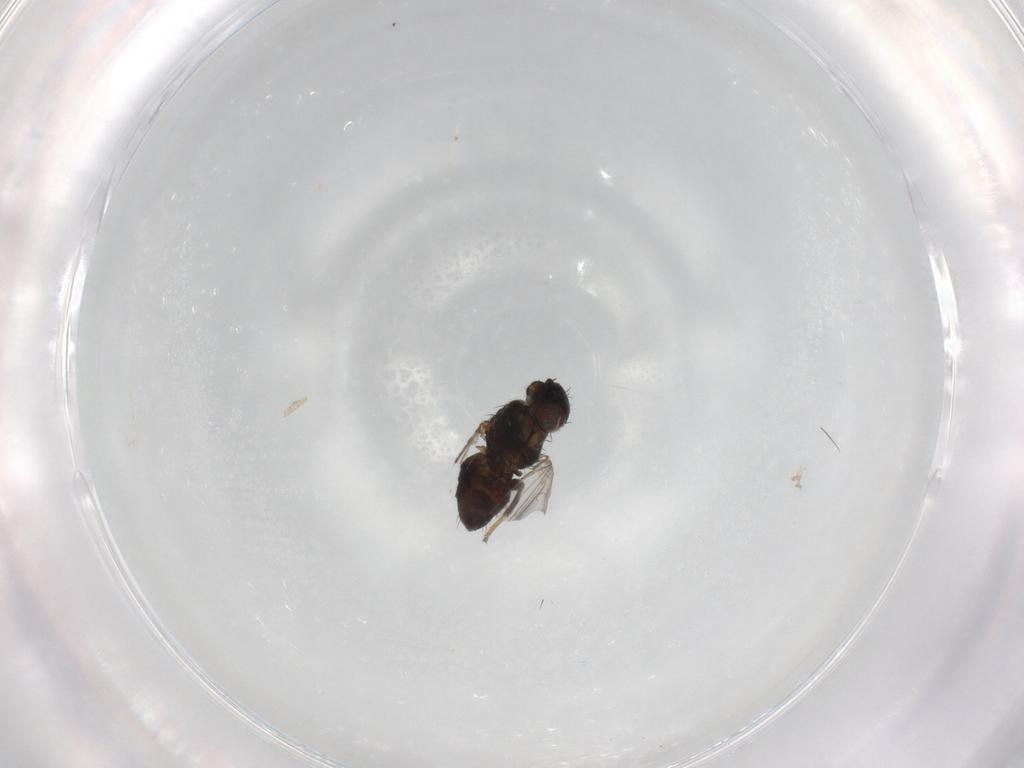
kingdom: Animalia
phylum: Arthropoda
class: Insecta
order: Diptera
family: Milichiidae
